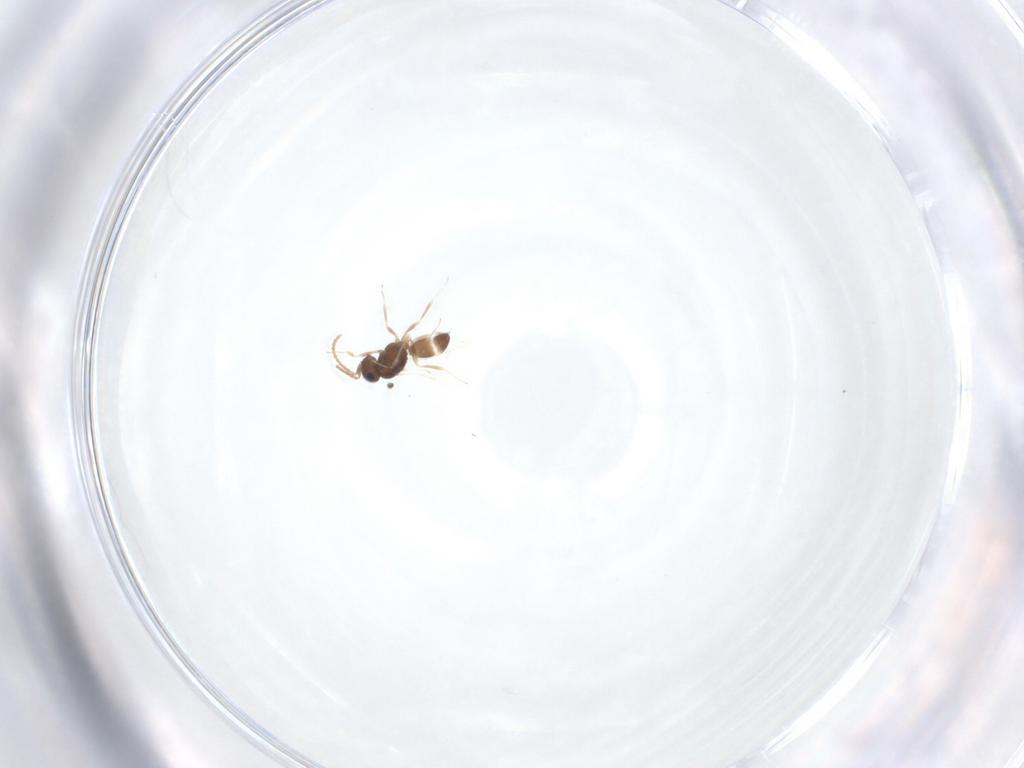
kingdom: Animalia
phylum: Arthropoda
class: Insecta
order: Hymenoptera
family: Scelionidae
